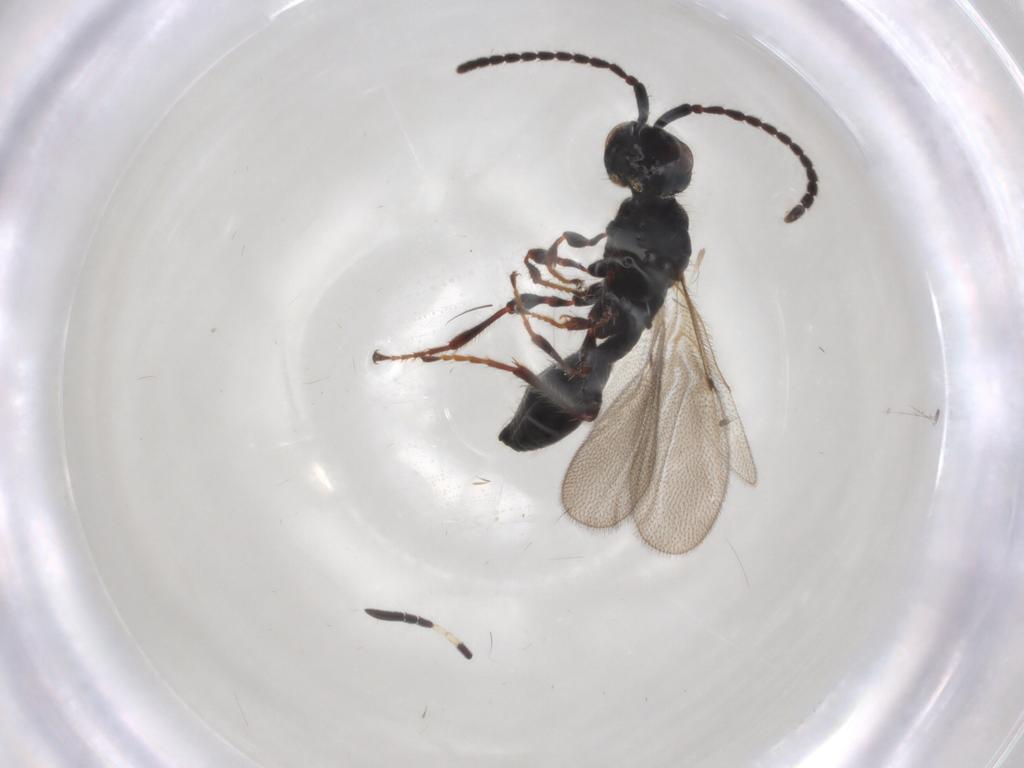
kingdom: Animalia
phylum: Arthropoda
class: Insecta
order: Hymenoptera
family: Diapriidae
